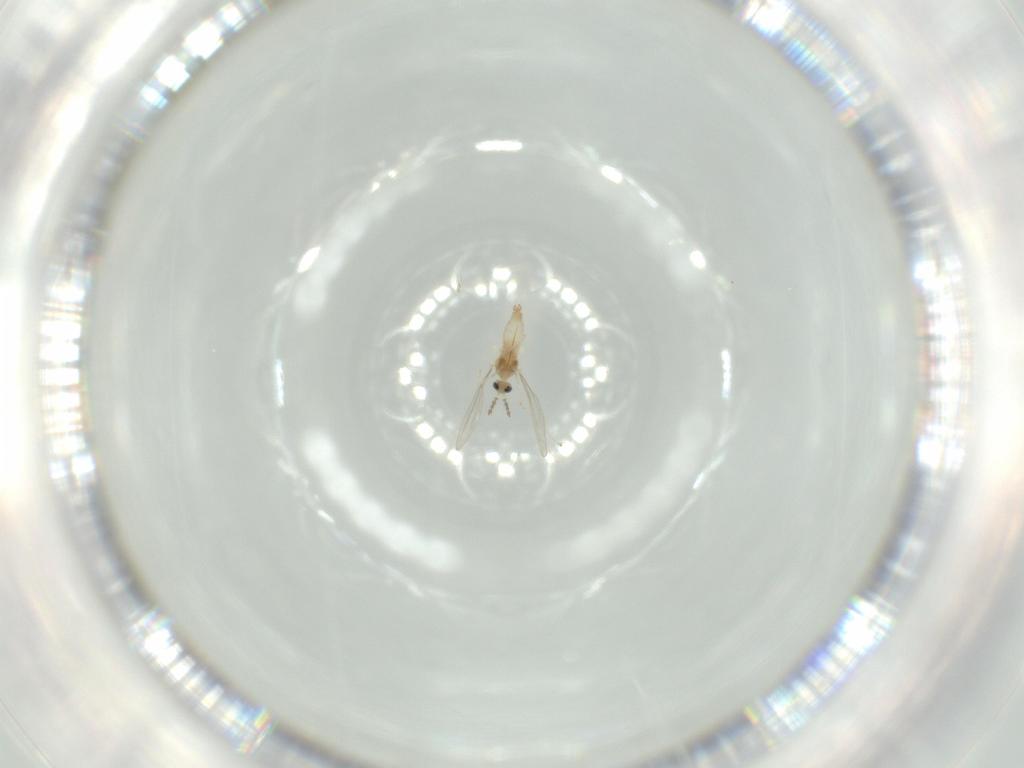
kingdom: Animalia
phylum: Arthropoda
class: Insecta
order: Diptera
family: Cecidomyiidae
